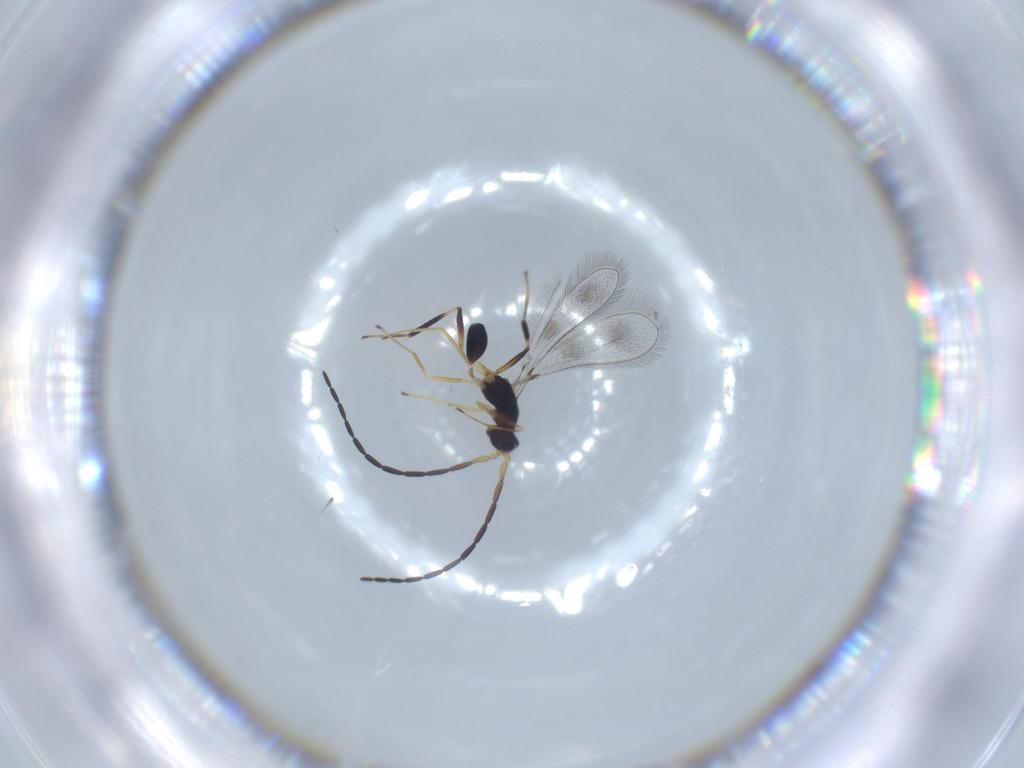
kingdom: Animalia
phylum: Arthropoda
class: Insecta
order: Hymenoptera
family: Mymaridae
